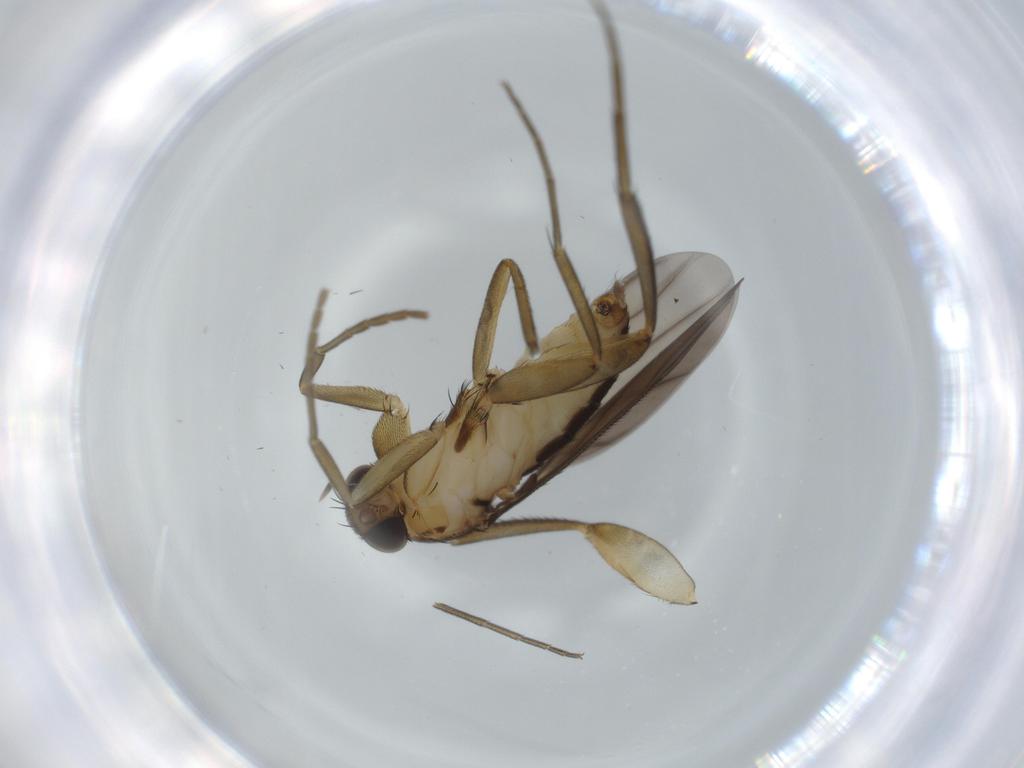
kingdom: Animalia
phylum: Arthropoda
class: Insecta
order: Diptera
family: Phoridae
